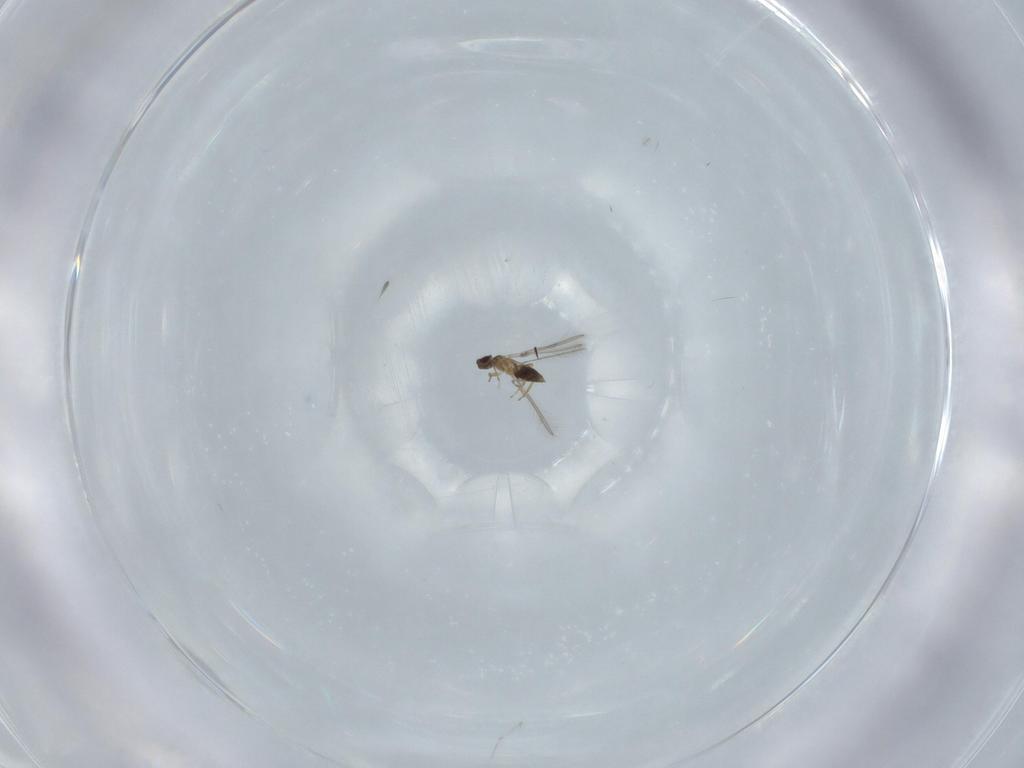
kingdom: Animalia
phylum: Arthropoda
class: Insecta
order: Hymenoptera
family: Mymaridae
